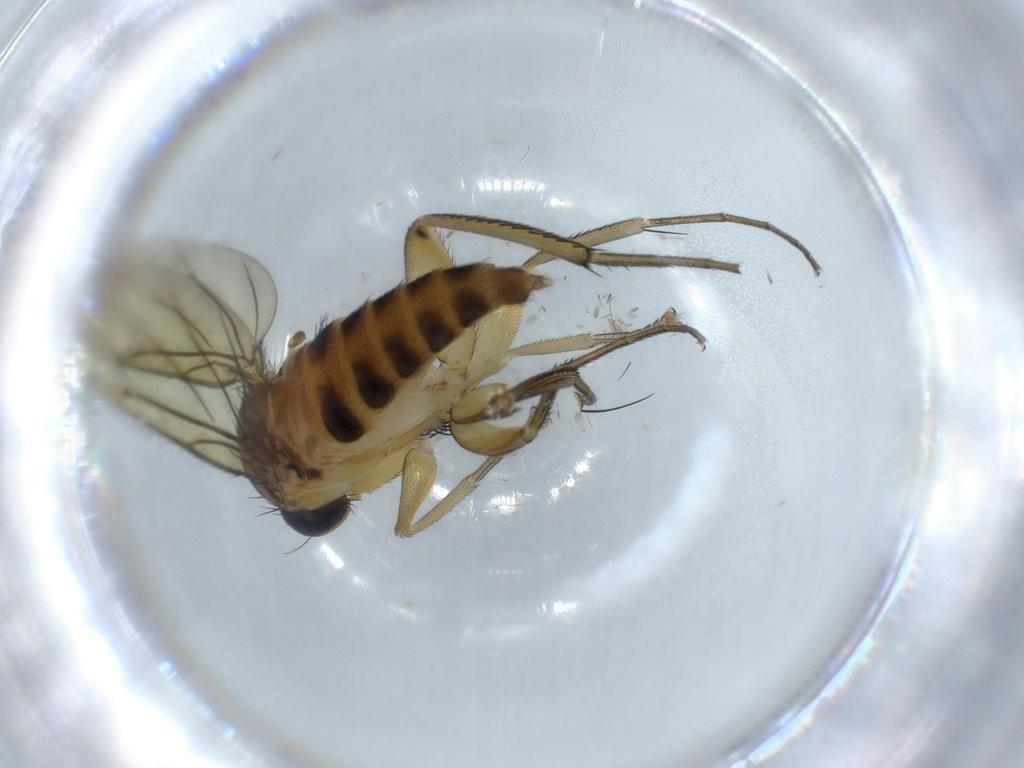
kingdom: Animalia
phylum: Arthropoda
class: Insecta
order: Diptera
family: Phoridae
